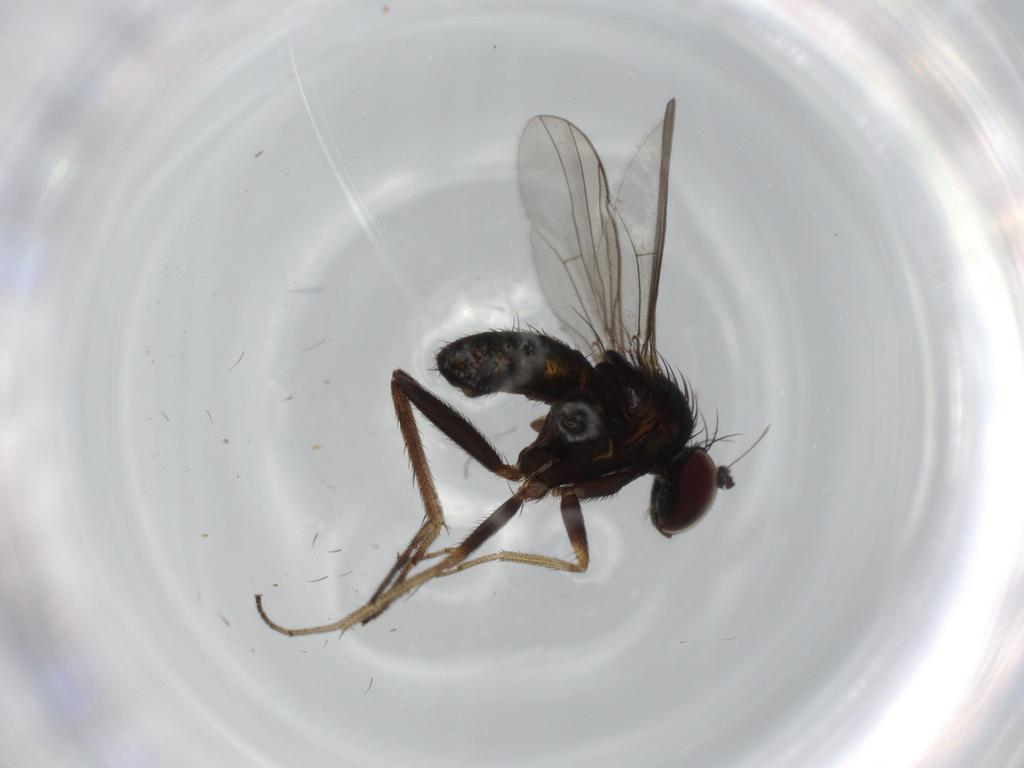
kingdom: Animalia
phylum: Arthropoda
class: Insecta
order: Diptera
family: Dolichopodidae
